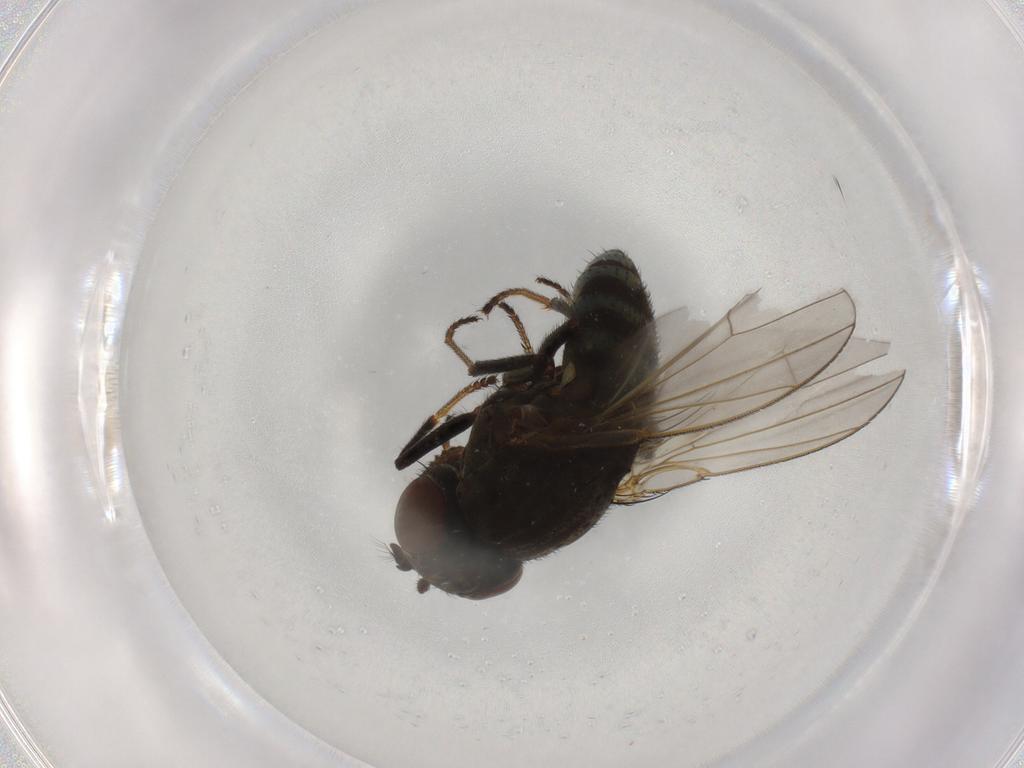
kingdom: Animalia
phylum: Arthropoda
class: Insecta
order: Diptera
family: Ephydridae
